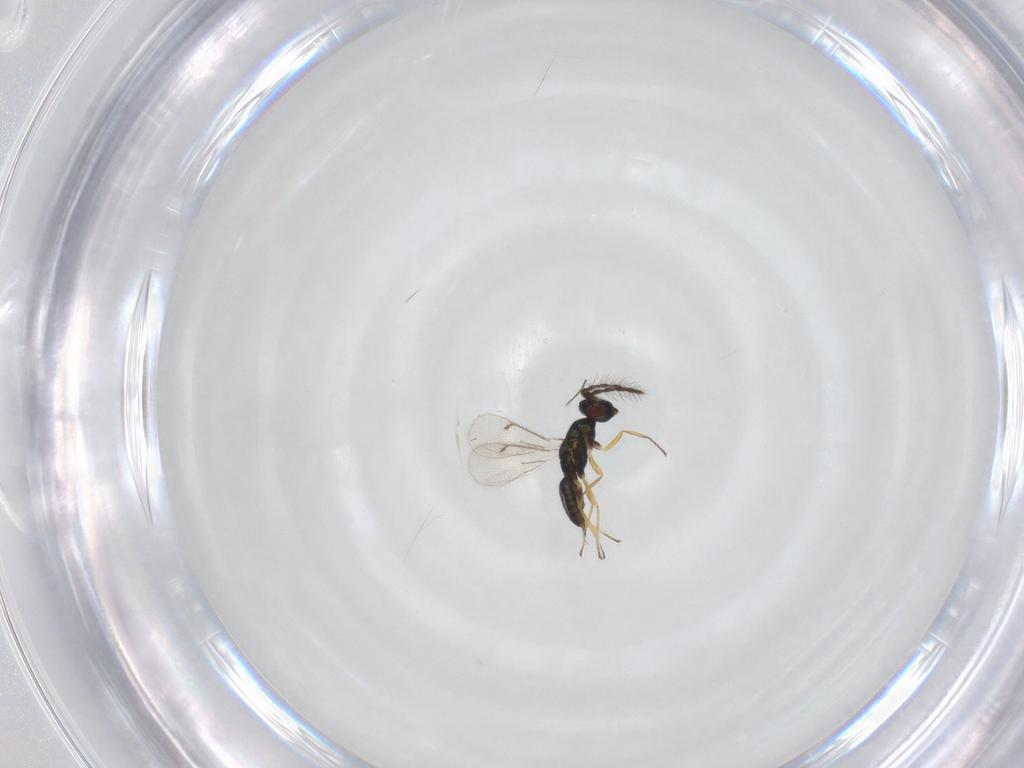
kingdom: Animalia
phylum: Arthropoda
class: Insecta
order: Hymenoptera
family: Eulophidae
